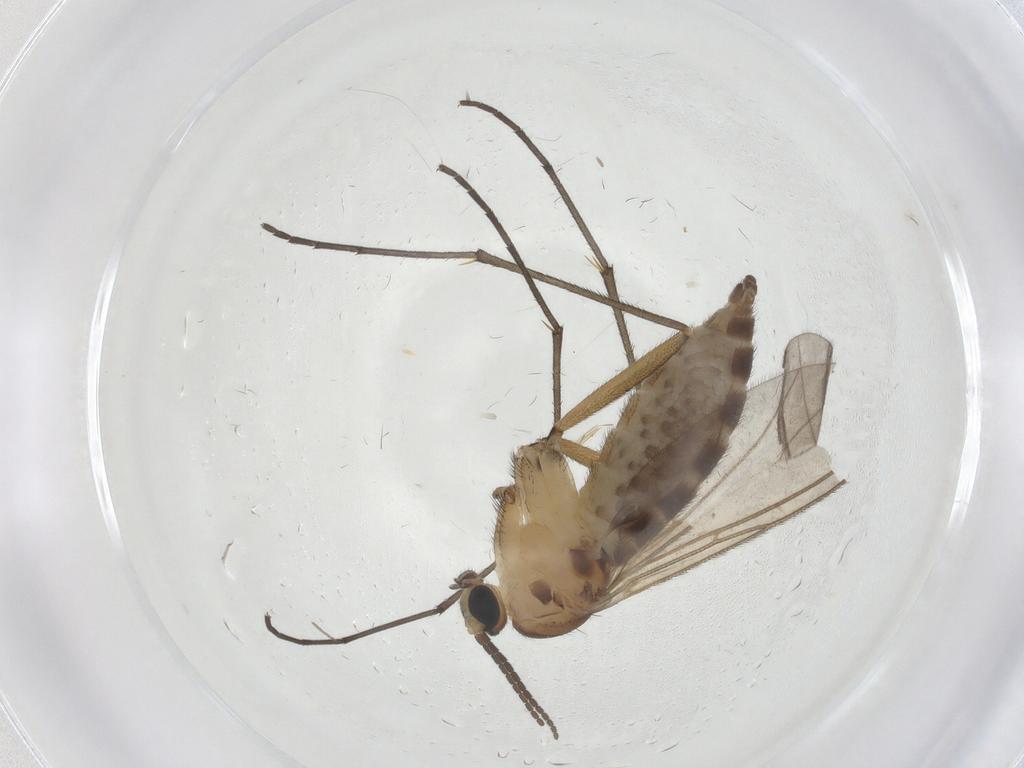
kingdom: Animalia
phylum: Arthropoda
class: Insecta
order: Diptera
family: Sciaridae
